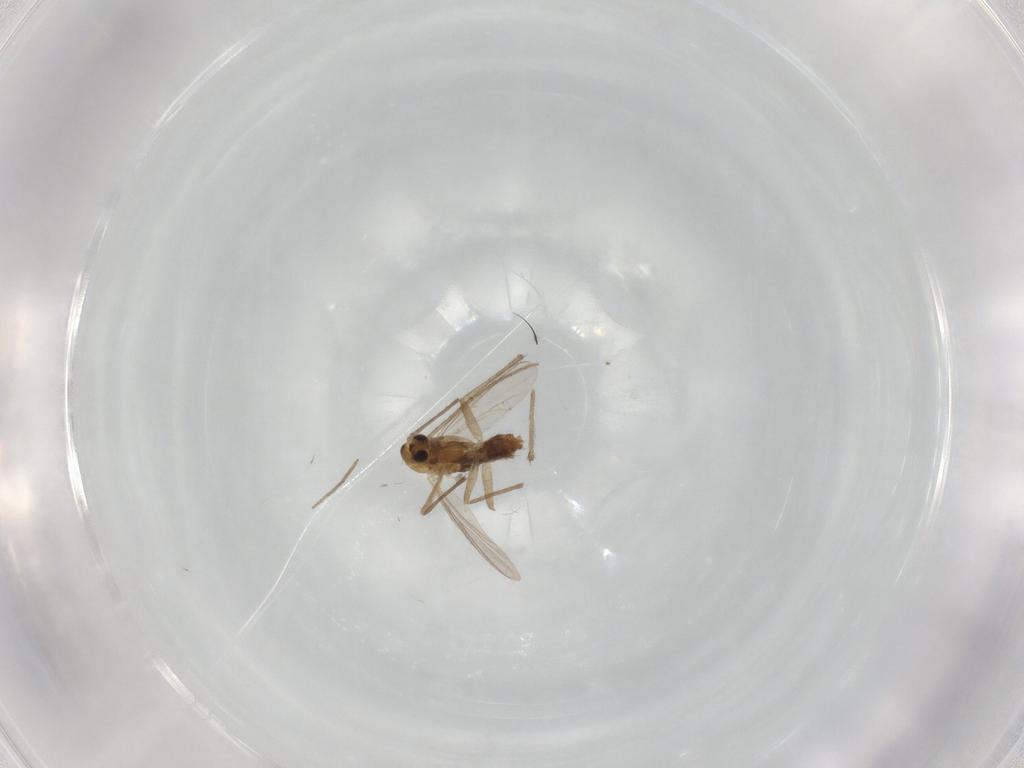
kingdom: Animalia
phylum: Arthropoda
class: Insecta
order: Diptera
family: Chironomidae
